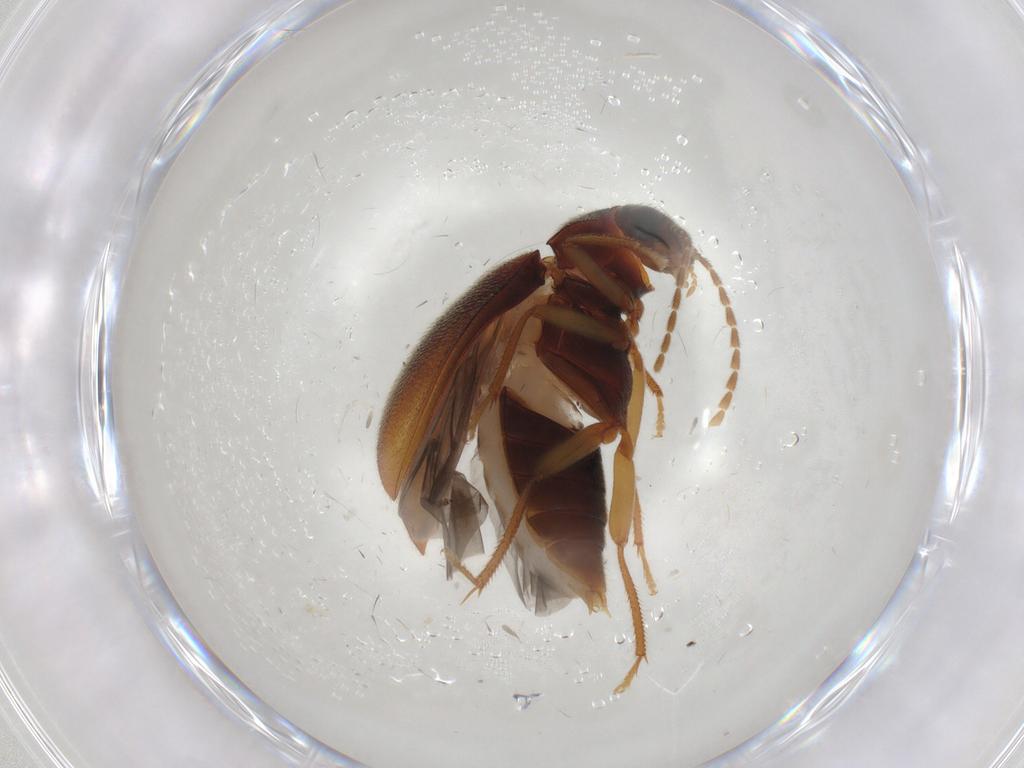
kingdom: Animalia
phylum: Arthropoda
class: Insecta
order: Coleoptera
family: Ptilodactylidae
